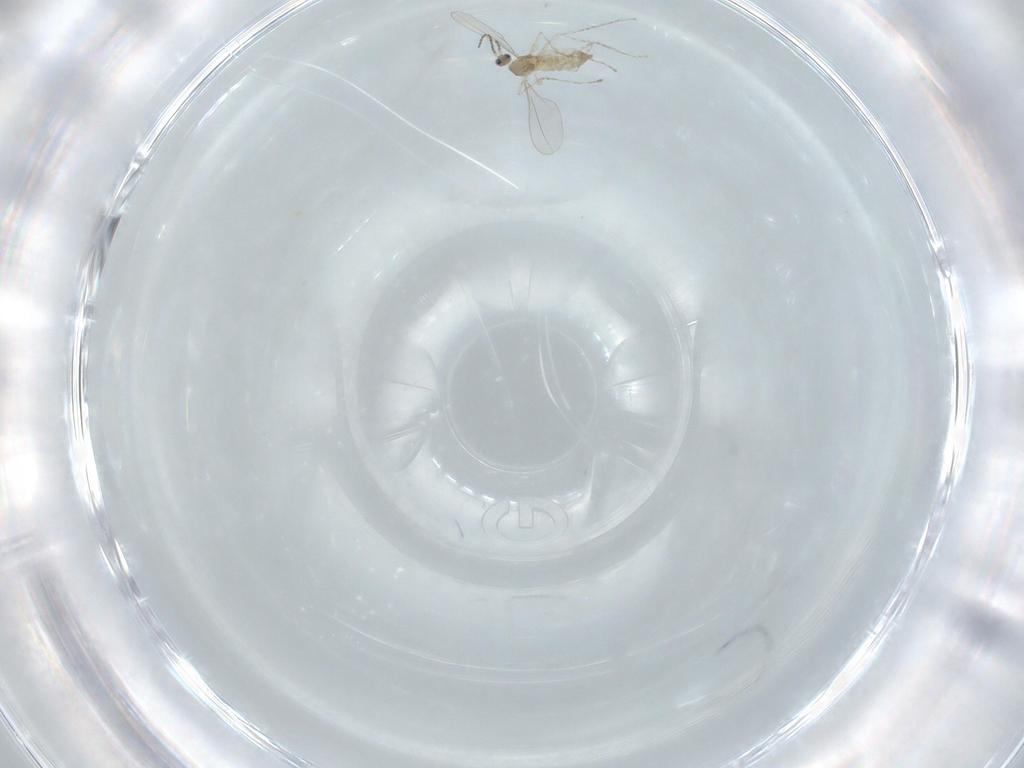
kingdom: Animalia
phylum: Arthropoda
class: Insecta
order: Diptera
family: Cecidomyiidae
